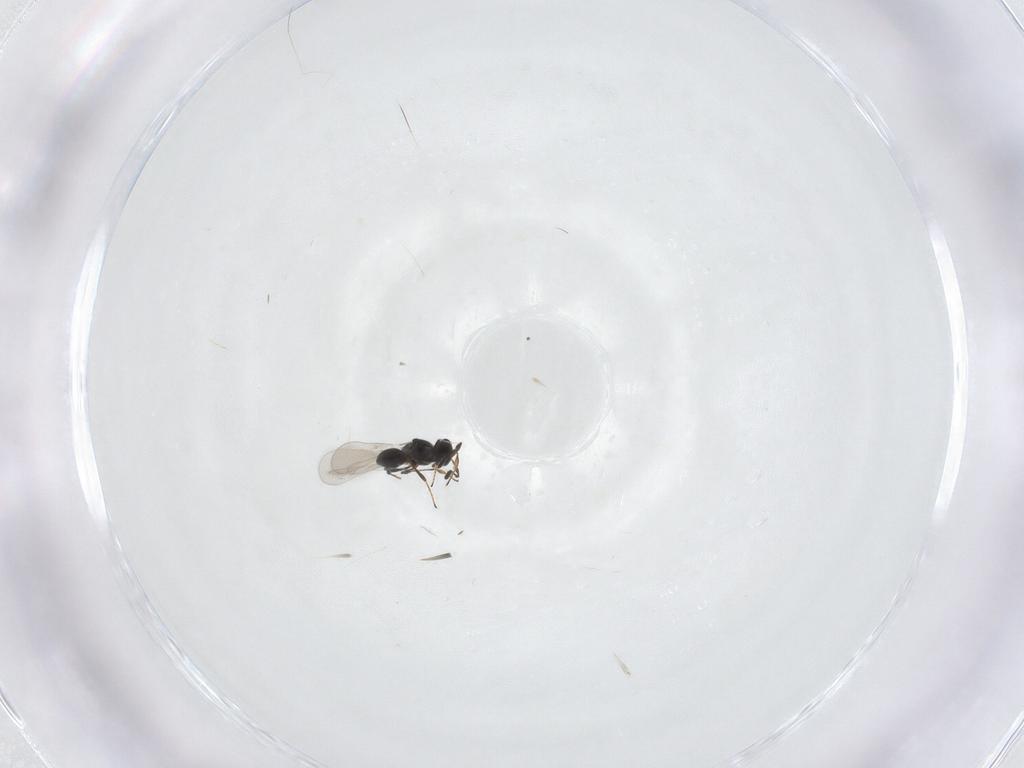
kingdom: Animalia
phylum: Arthropoda
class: Insecta
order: Hymenoptera
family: Platygastridae
